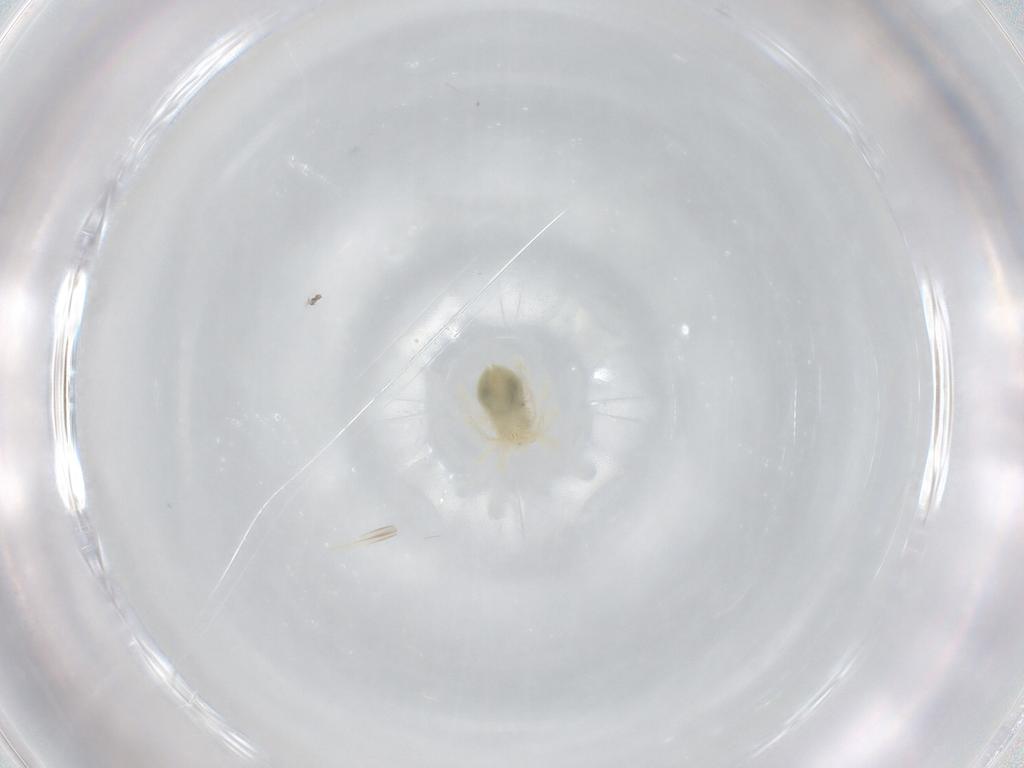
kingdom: Animalia
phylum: Arthropoda
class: Arachnida
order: Trombidiformes
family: Anystidae
